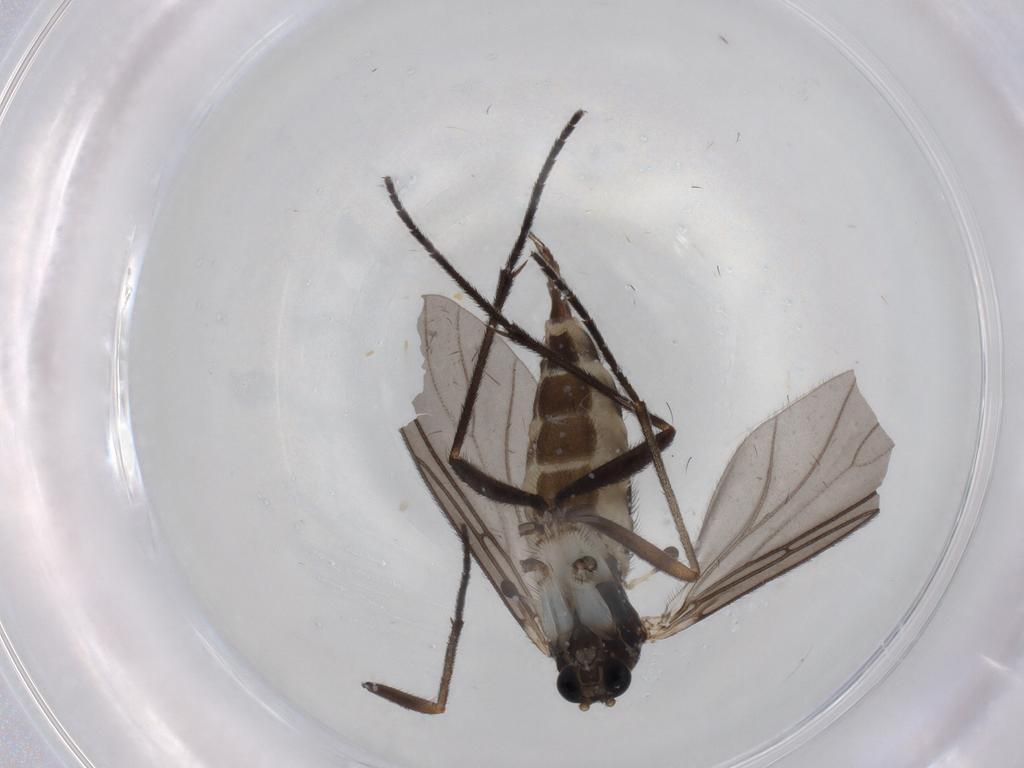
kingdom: Animalia
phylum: Arthropoda
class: Insecta
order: Diptera
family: Sciaridae
